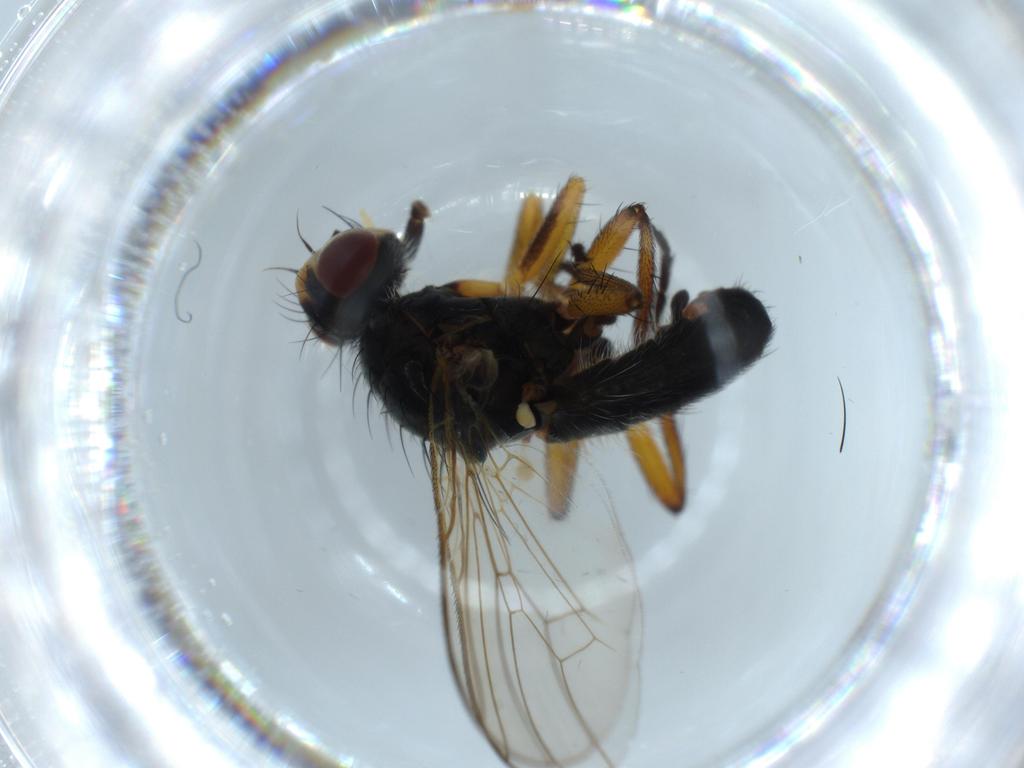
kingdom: Animalia
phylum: Arthropoda
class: Insecta
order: Diptera
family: Scathophagidae
